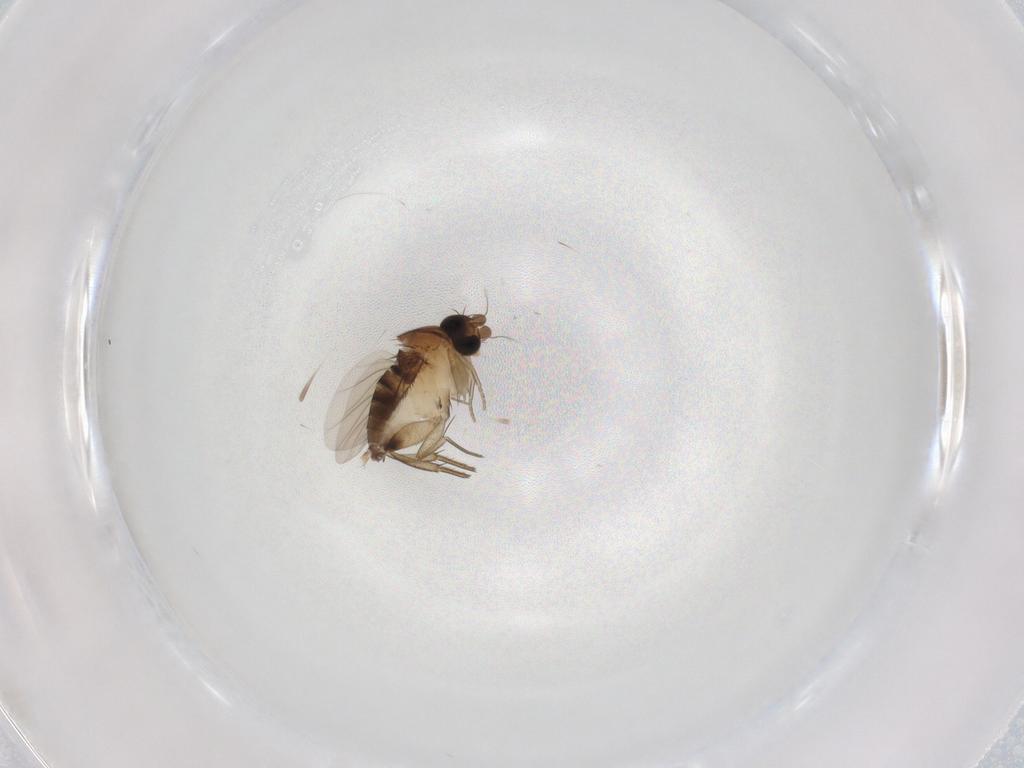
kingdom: Animalia
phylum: Arthropoda
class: Insecta
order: Diptera
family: Phoridae
